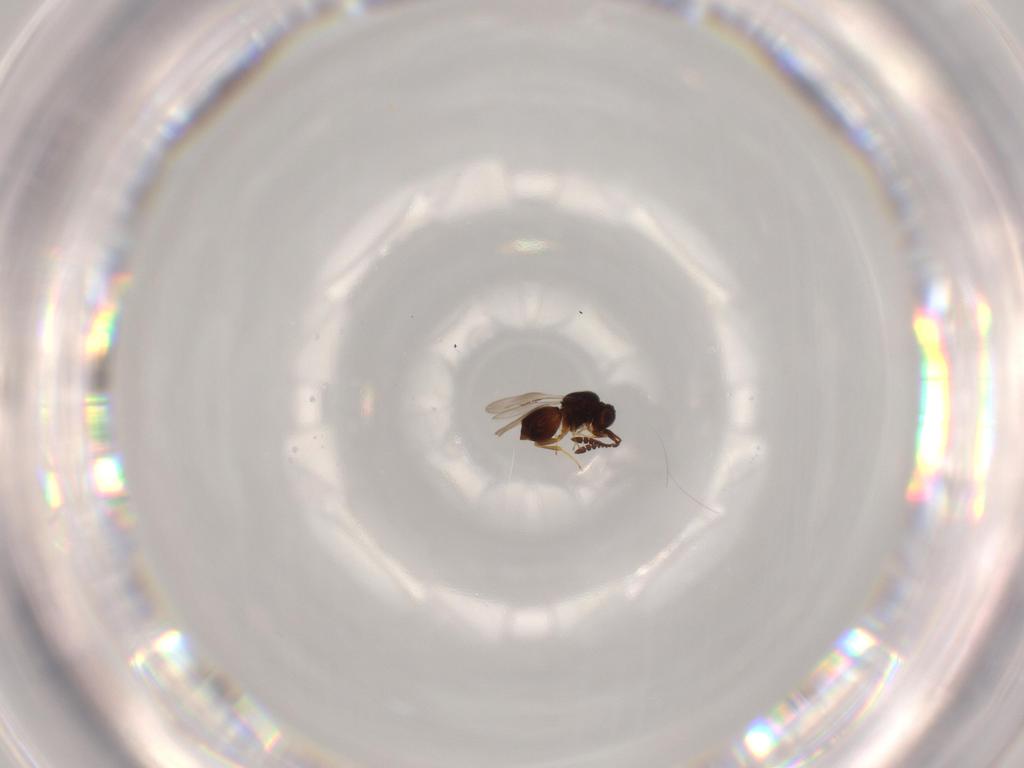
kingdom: Animalia
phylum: Arthropoda
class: Insecta
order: Hymenoptera
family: Ceraphronidae
